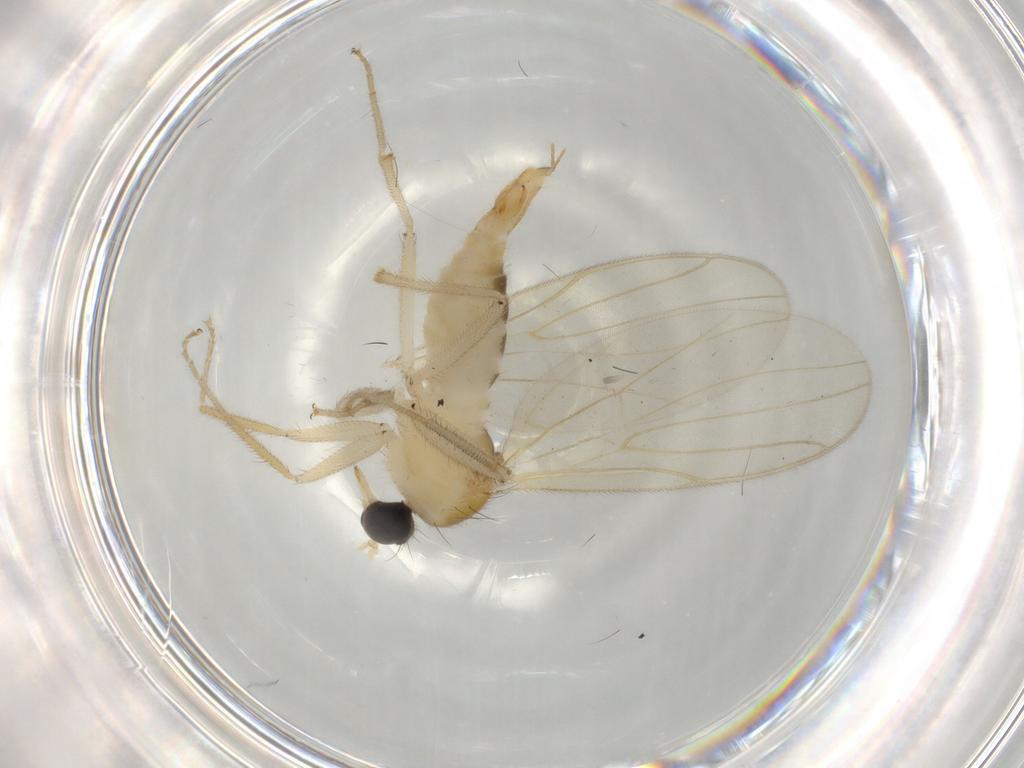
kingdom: Animalia
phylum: Arthropoda
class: Insecta
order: Diptera
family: Hybotidae
